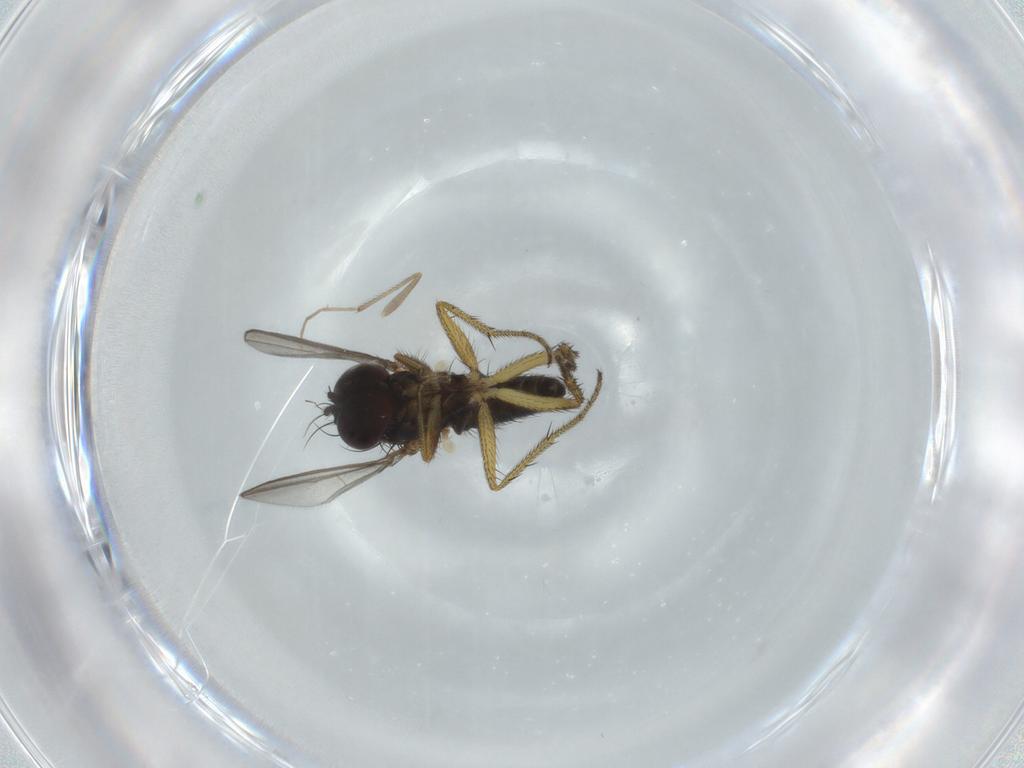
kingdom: Animalia
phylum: Arthropoda
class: Insecta
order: Diptera
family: Dolichopodidae
